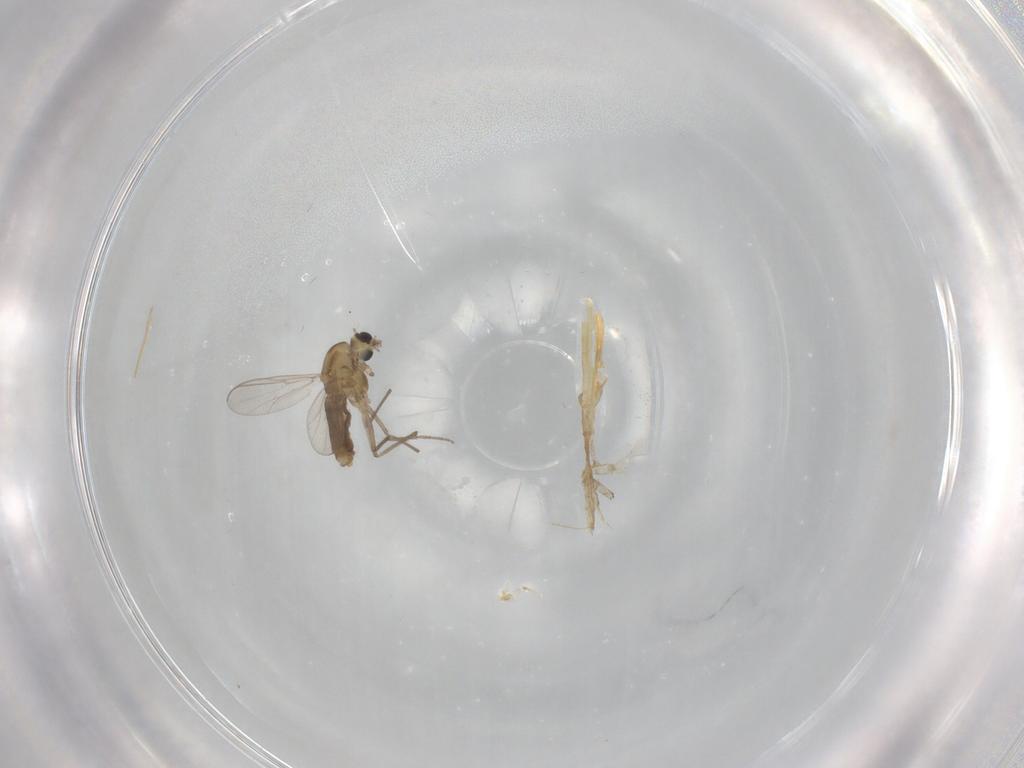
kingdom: Animalia
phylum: Arthropoda
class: Insecta
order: Diptera
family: Chironomidae
